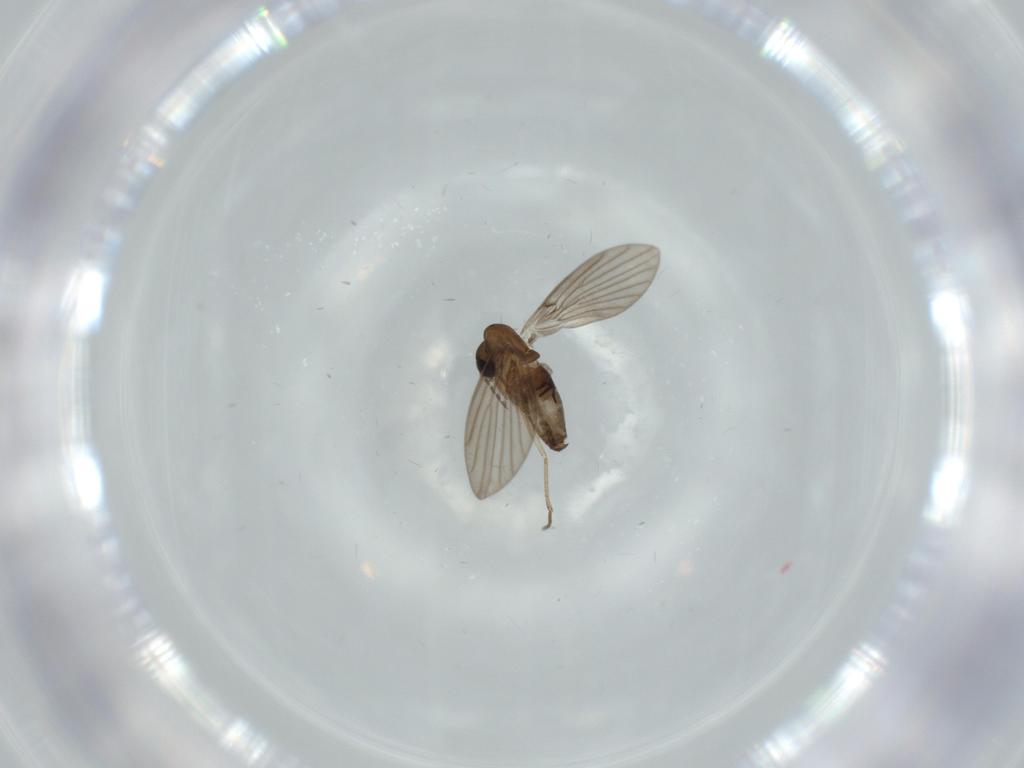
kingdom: Animalia
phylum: Arthropoda
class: Insecta
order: Diptera
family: Psychodidae
